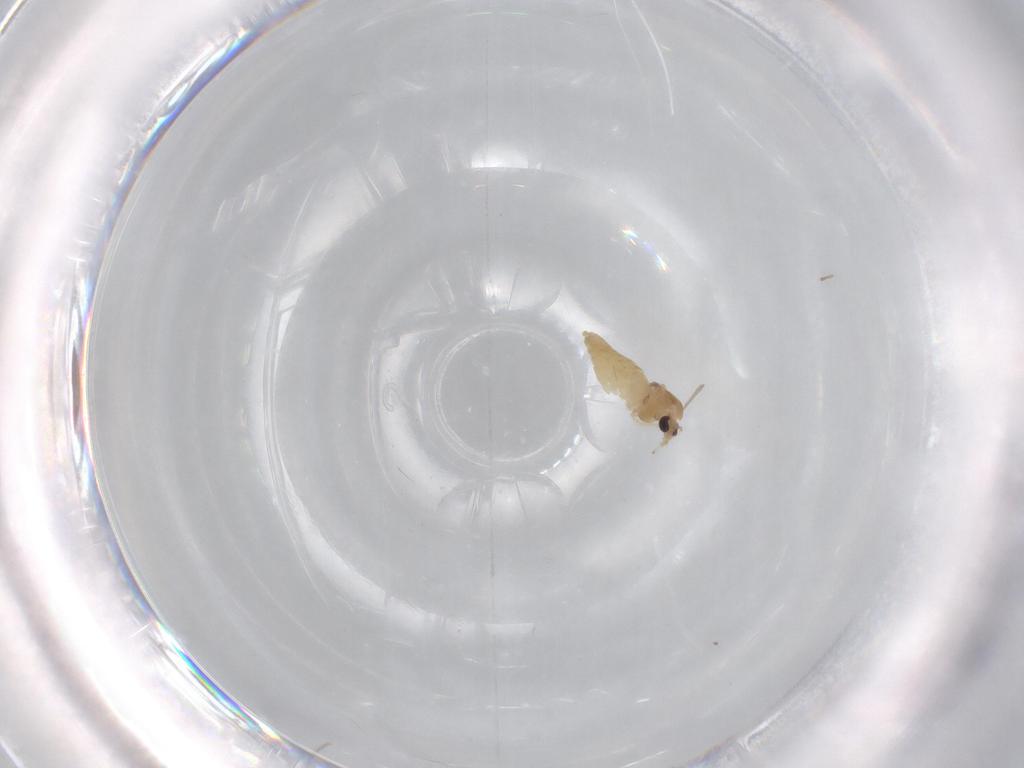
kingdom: Animalia
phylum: Arthropoda
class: Insecta
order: Diptera
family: Chironomidae
